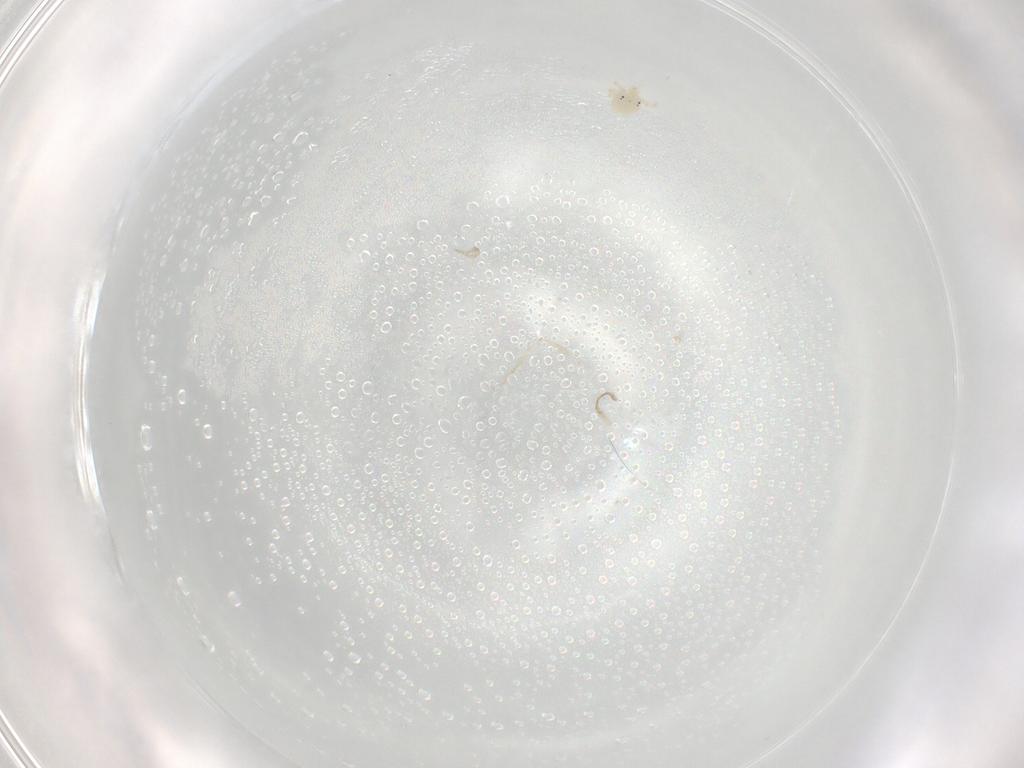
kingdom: Animalia
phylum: Arthropoda
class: Arachnida
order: Trombidiformes
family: Hydryphantidae
